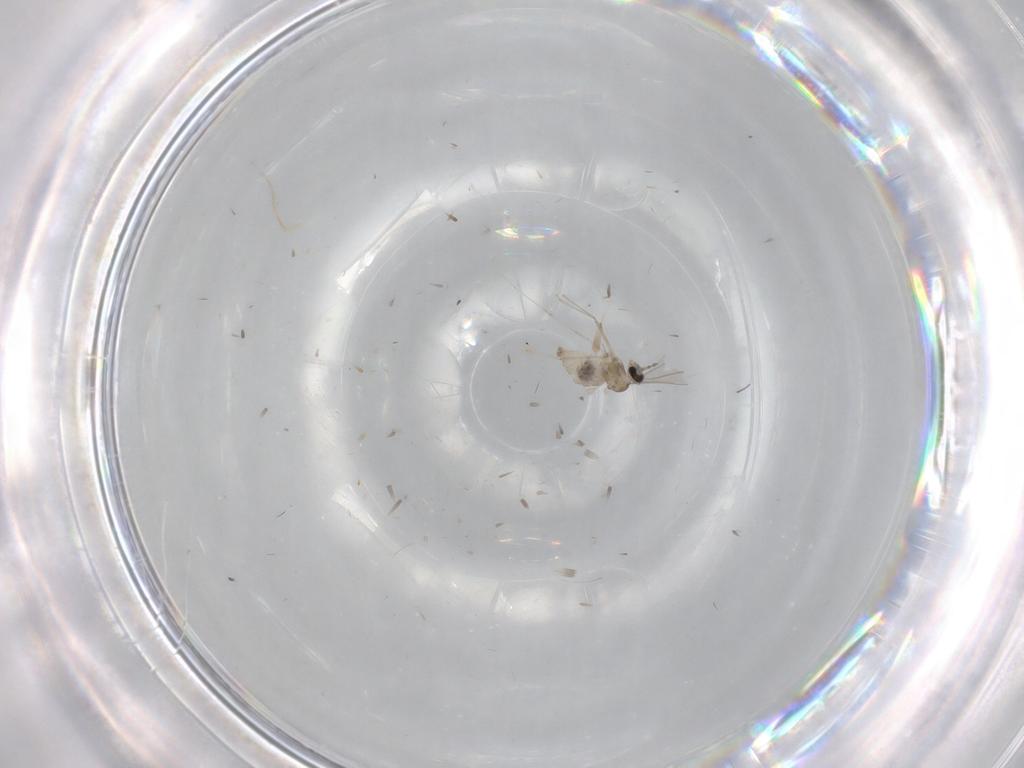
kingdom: Animalia
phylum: Arthropoda
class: Insecta
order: Diptera
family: Cecidomyiidae
